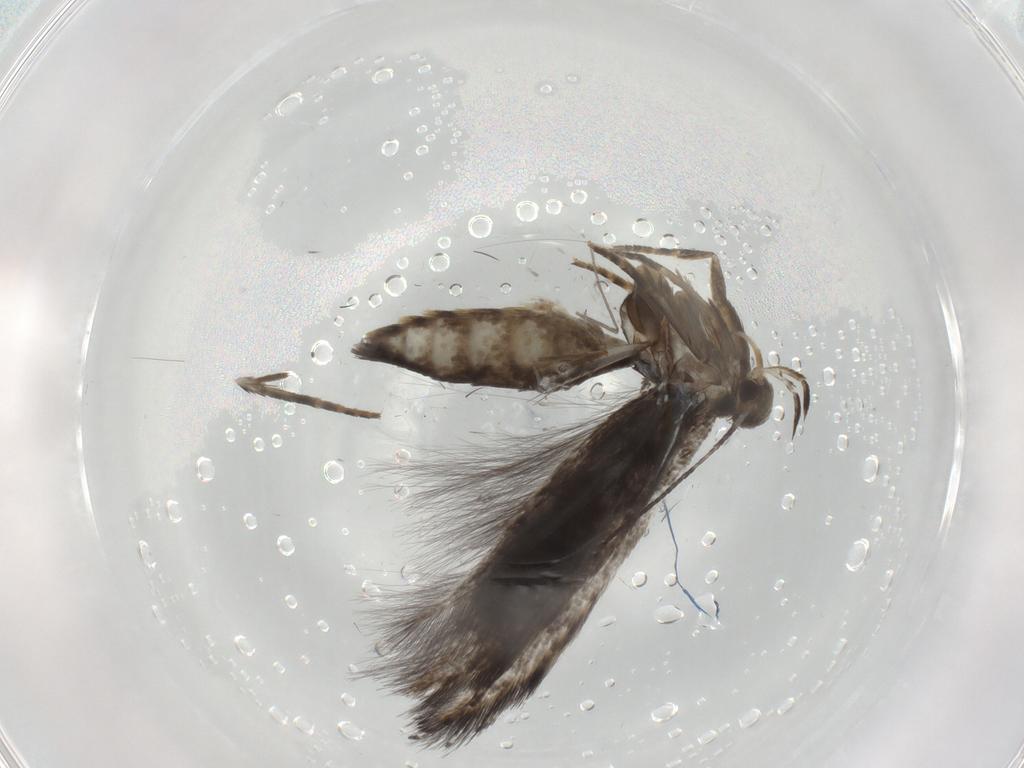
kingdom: Animalia
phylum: Arthropoda
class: Insecta
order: Lepidoptera
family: Elachistidae
